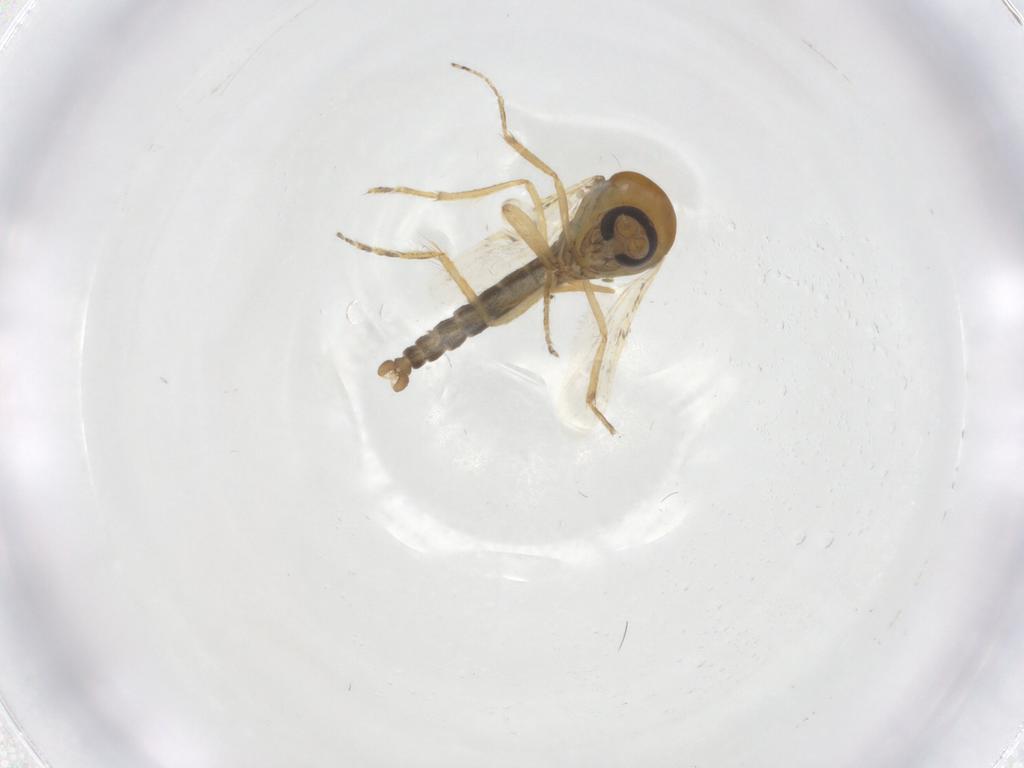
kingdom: Animalia
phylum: Arthropoda
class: Insecta
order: Diptera
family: Ceratopogonidae
